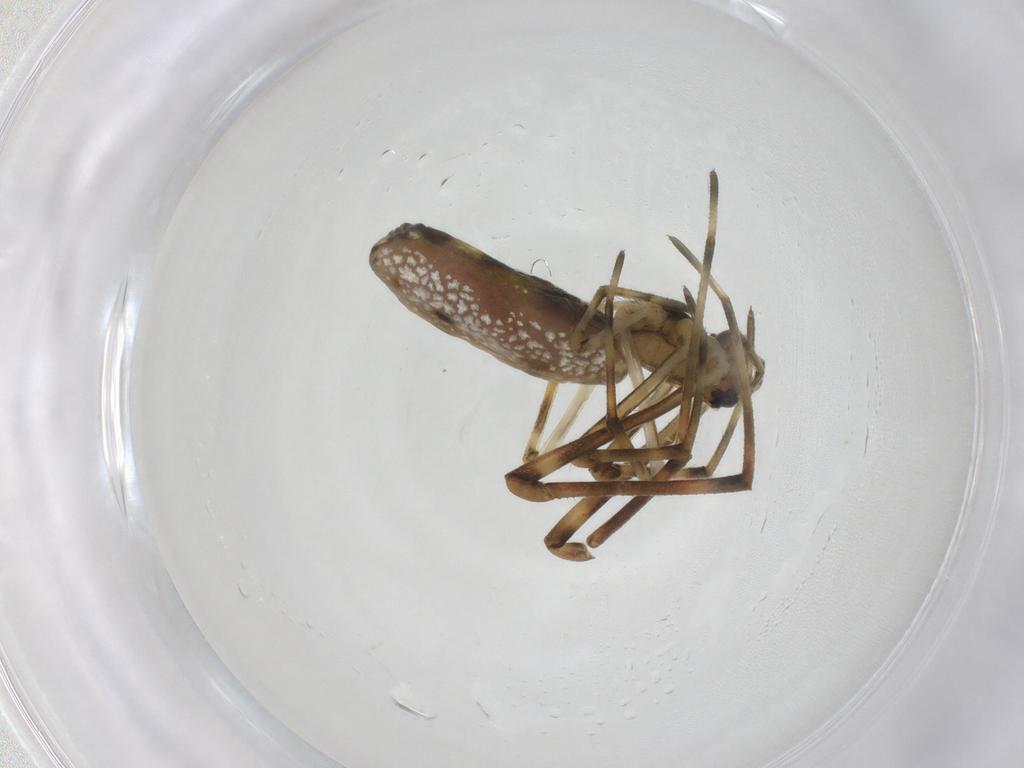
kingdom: Animalia
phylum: Arthropoda
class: Arachnida
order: Araneae
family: Tetragnathidae
